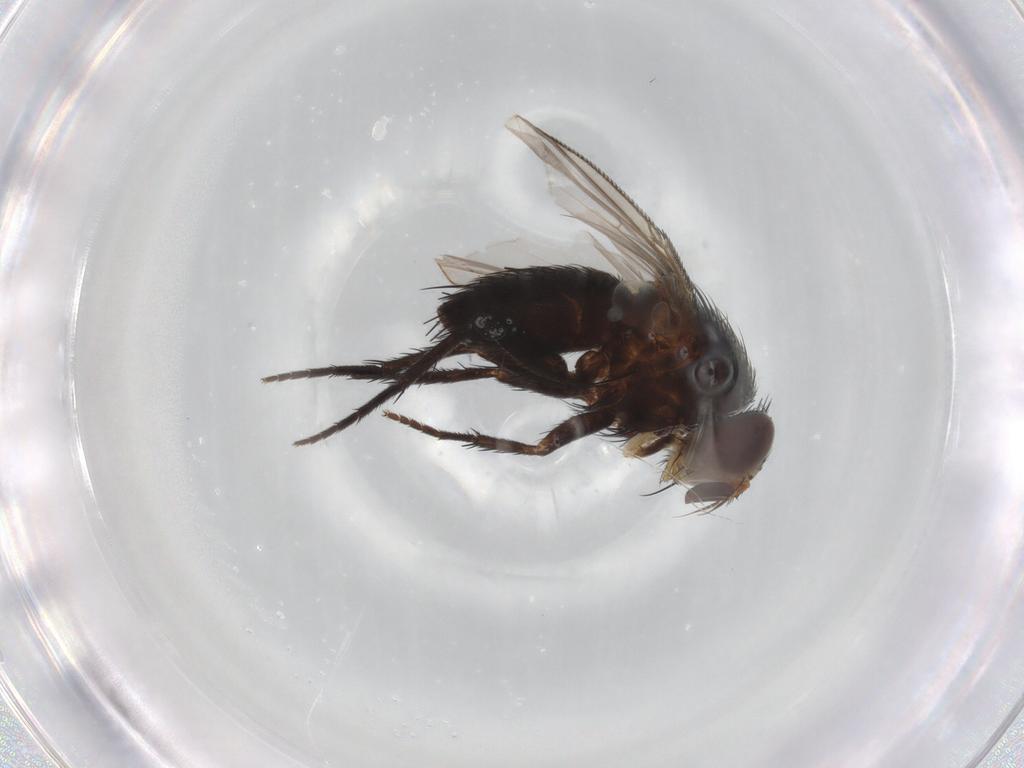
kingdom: Animalia
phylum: Arthropoda
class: Insecta
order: Diptera
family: Tachinidae
